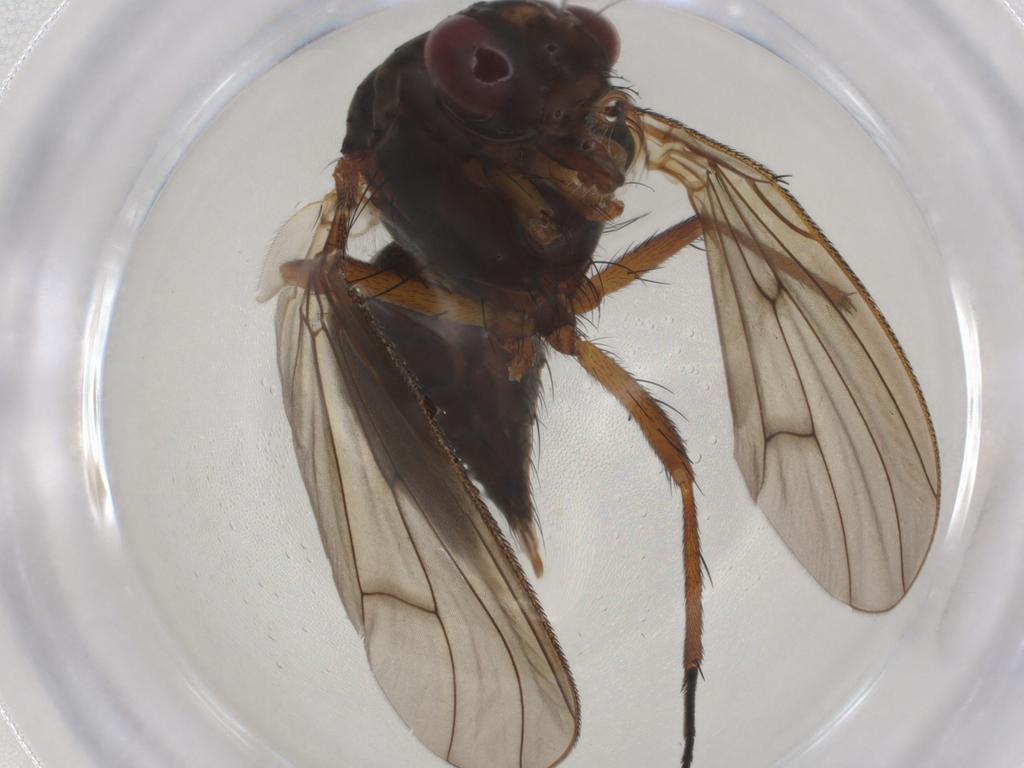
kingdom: Animalia
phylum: Arthropoda
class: Insecta
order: Diptera
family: Anthomyiidae
